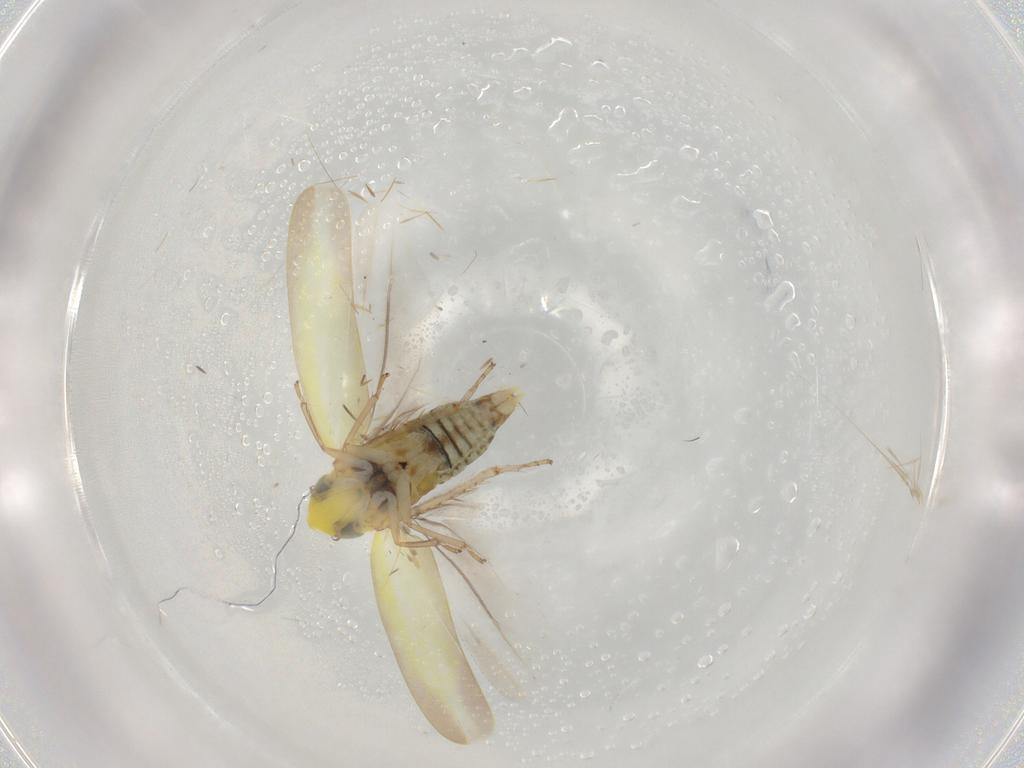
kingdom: Animalia
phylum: Arthropoda
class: Insecta
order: Hemiptera
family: Cicadellidae
